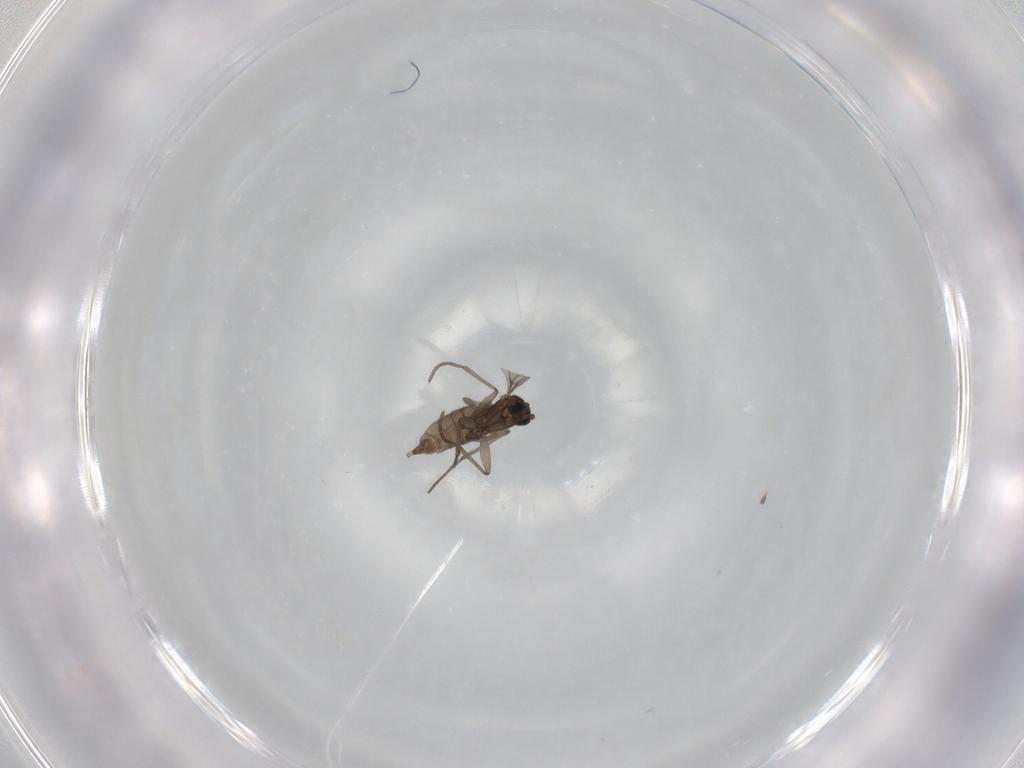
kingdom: Animalia
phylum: Arthropoda
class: Insecta
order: Diptera
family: Sciaridae
